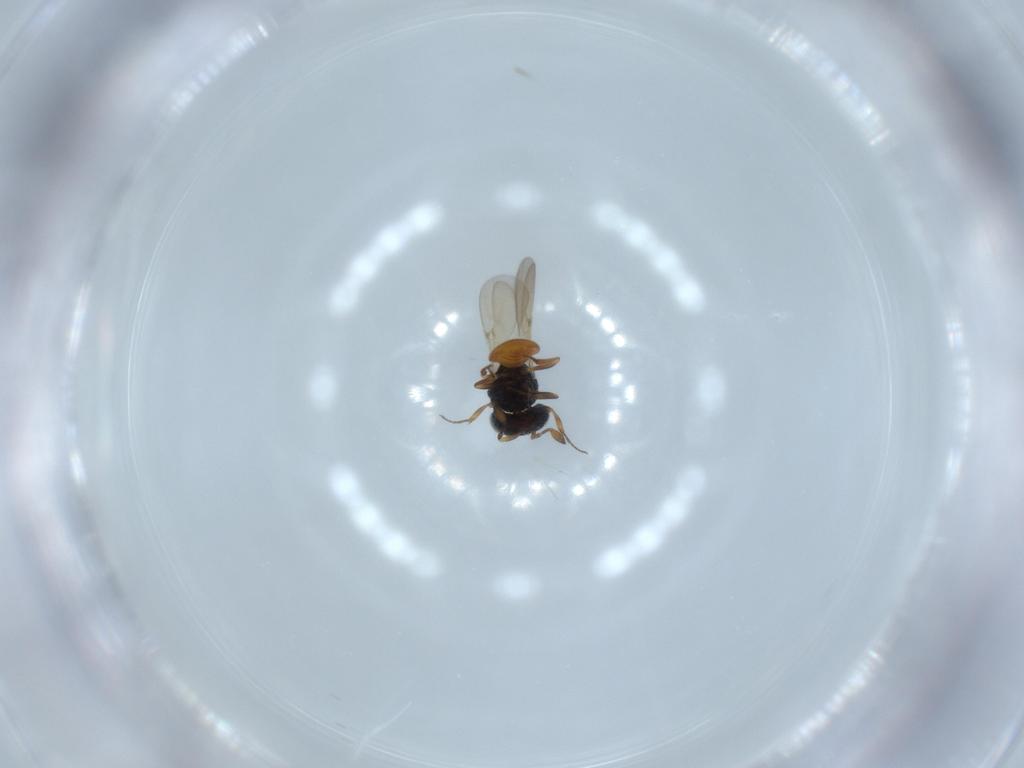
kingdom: Animalia
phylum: Arthropoda
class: Insecta
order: Hymenoptera
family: Scelionidae
